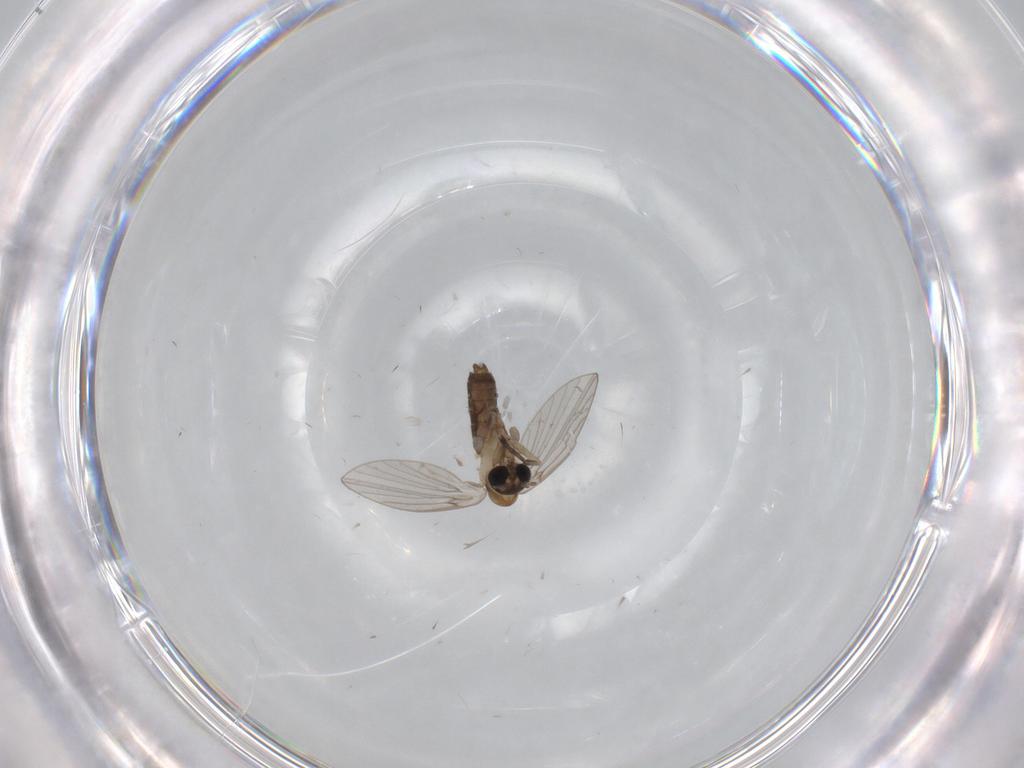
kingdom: Animalia
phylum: Arthropoda
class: Insecta
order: Diptera
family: Psychodidae
